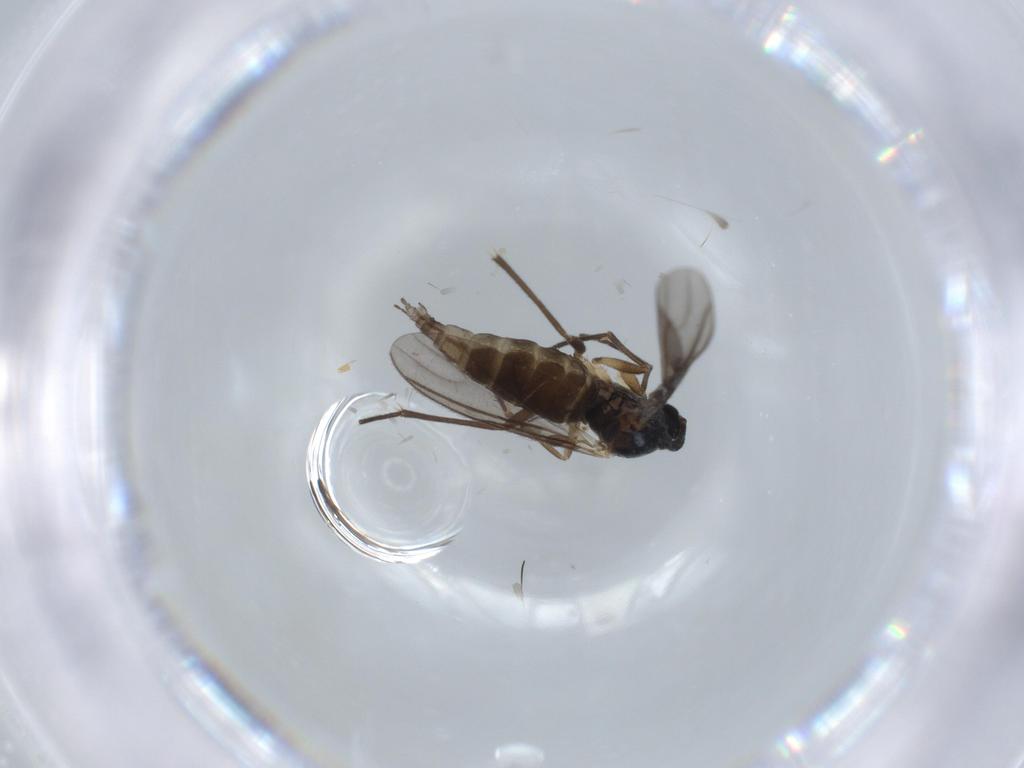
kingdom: Animalia
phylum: Arthropoda
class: Insecta
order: Diptera
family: Sciaridae
